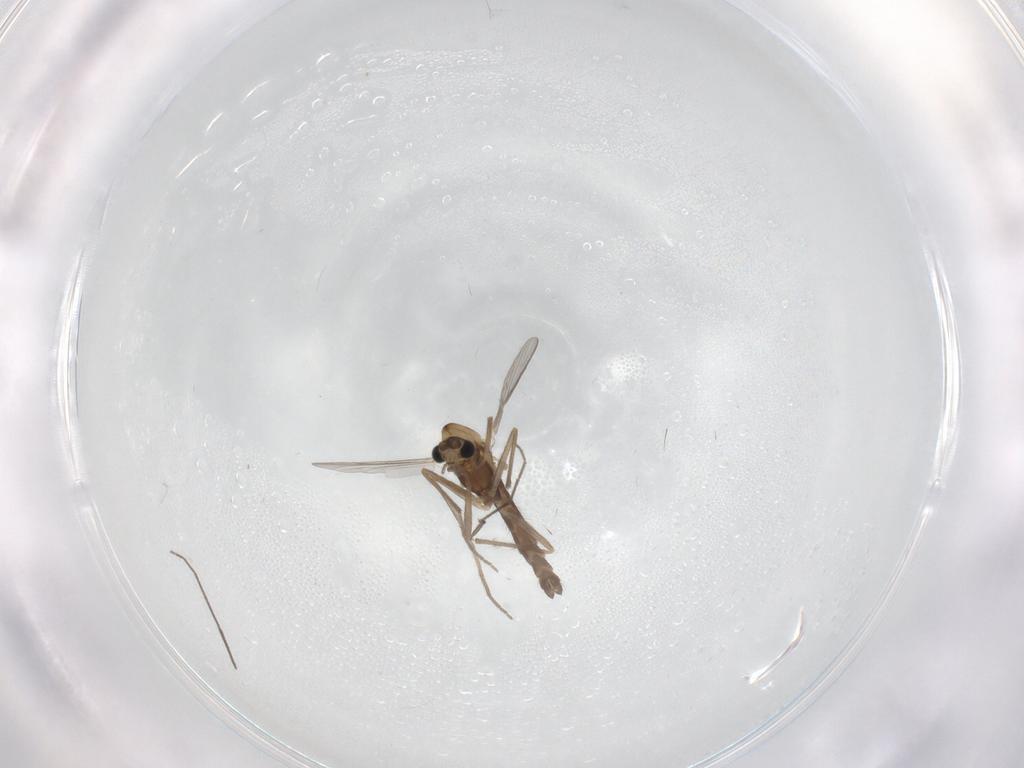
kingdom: Animalia
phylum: Arthropoda
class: Insecta
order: Diptera
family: Chironomidae
